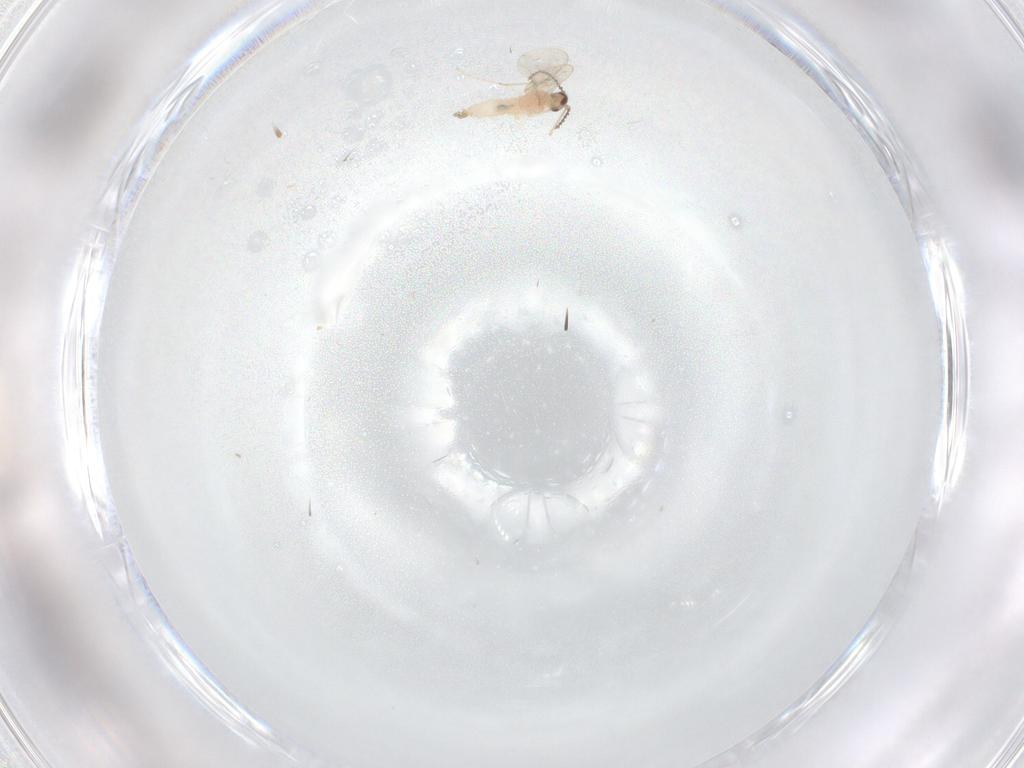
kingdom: Animalia
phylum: Arthropoda
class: Insecta
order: Diptera
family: Cecidomyiidae
